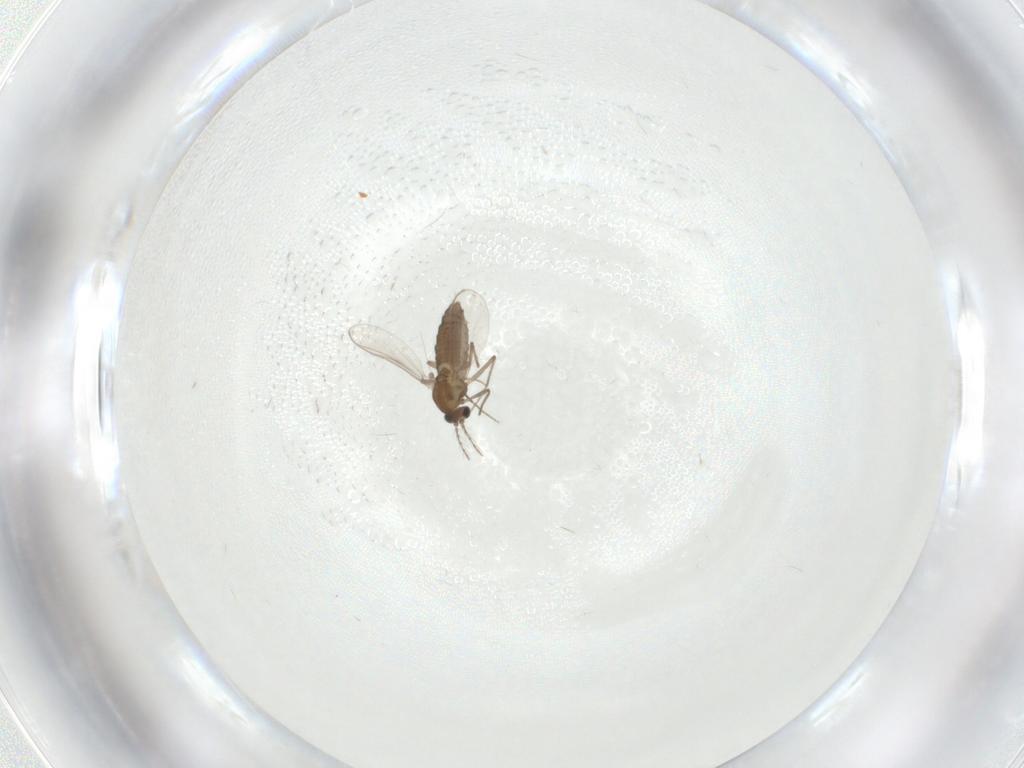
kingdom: Animalia
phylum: Arthropoda
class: Insecta
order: Diptera
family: Chironomidae
